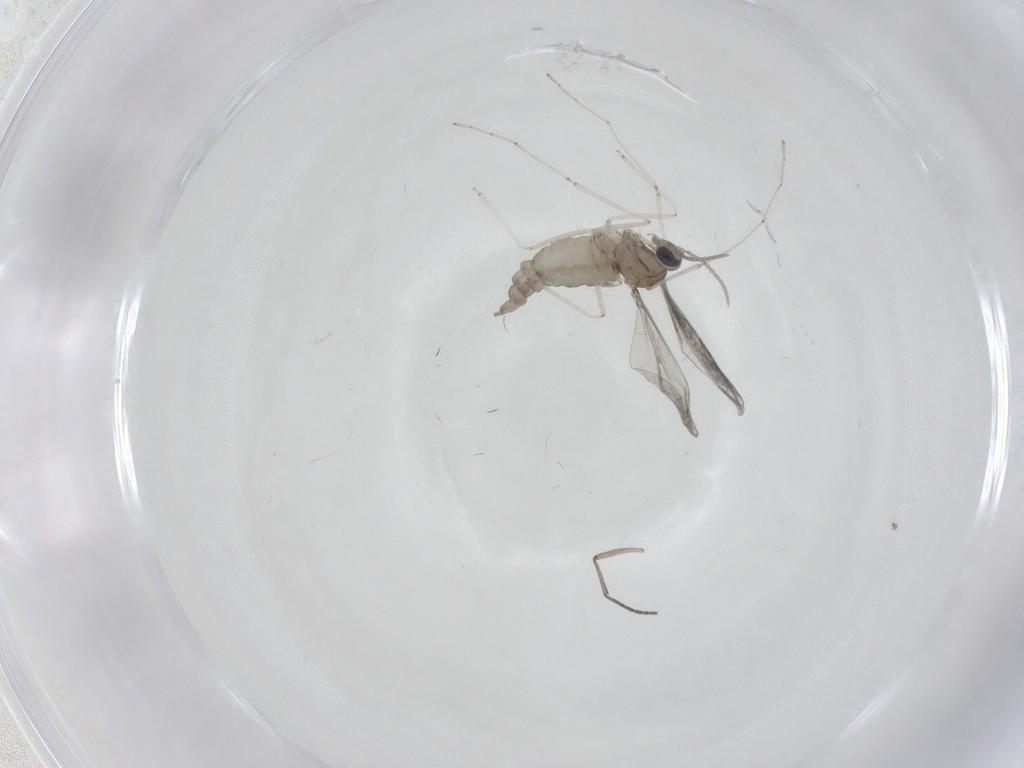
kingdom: Animalia
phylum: Arthropoda
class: Insecta
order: Diptera
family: Cecidomyiidae
